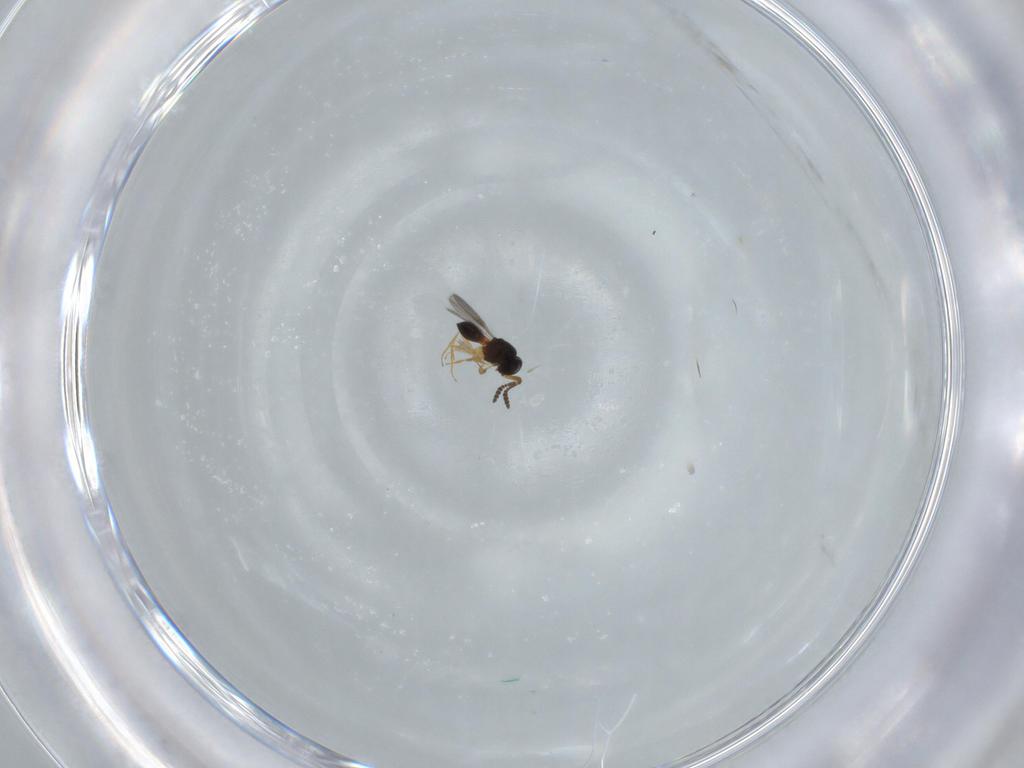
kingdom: Animalia
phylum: Arthropoda
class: Insecta
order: Hymenoptera
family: Scelionidae
